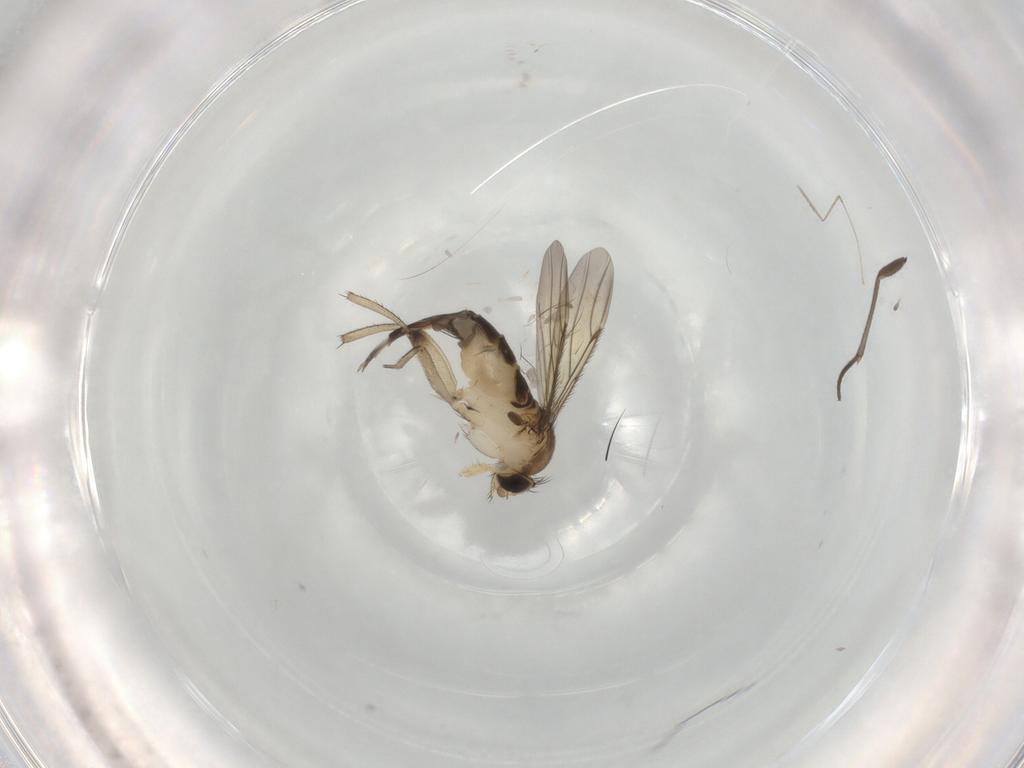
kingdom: Animalia
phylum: Arthropoda
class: Insecta
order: Diptera
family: Phoridae
